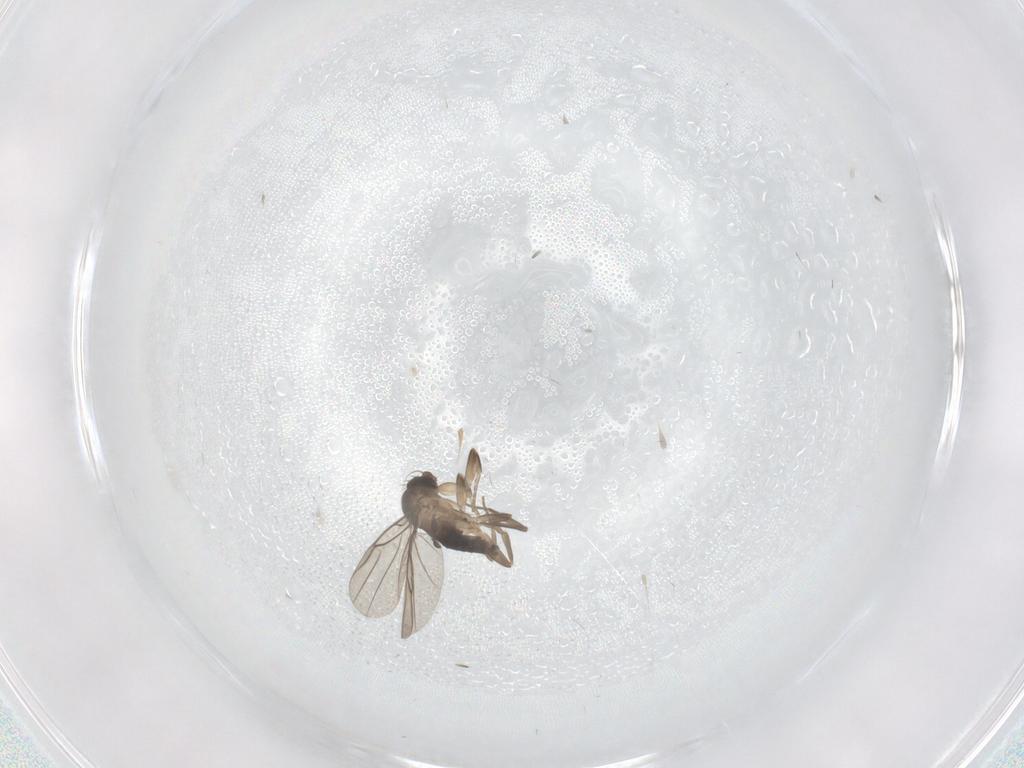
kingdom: Animalia
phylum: Arthropoda
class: Insecta
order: Diptera
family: Phoridae
